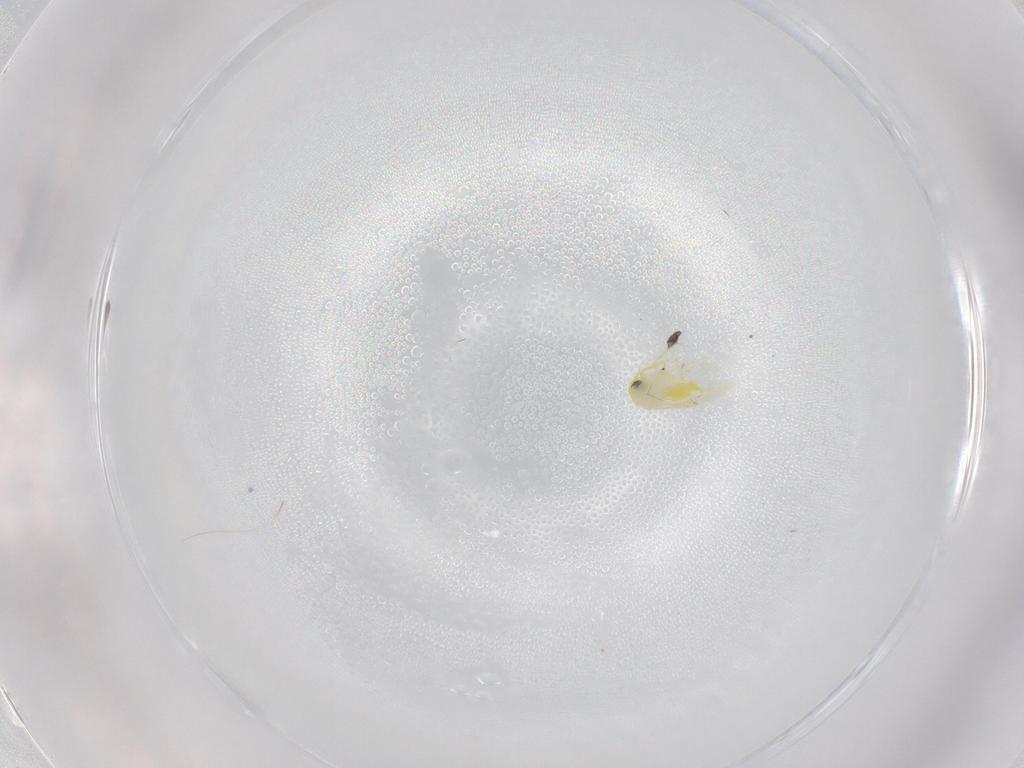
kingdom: Animalia
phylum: Arthropoda
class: Insecta
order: Hemiptera
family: Aleyrodidae
